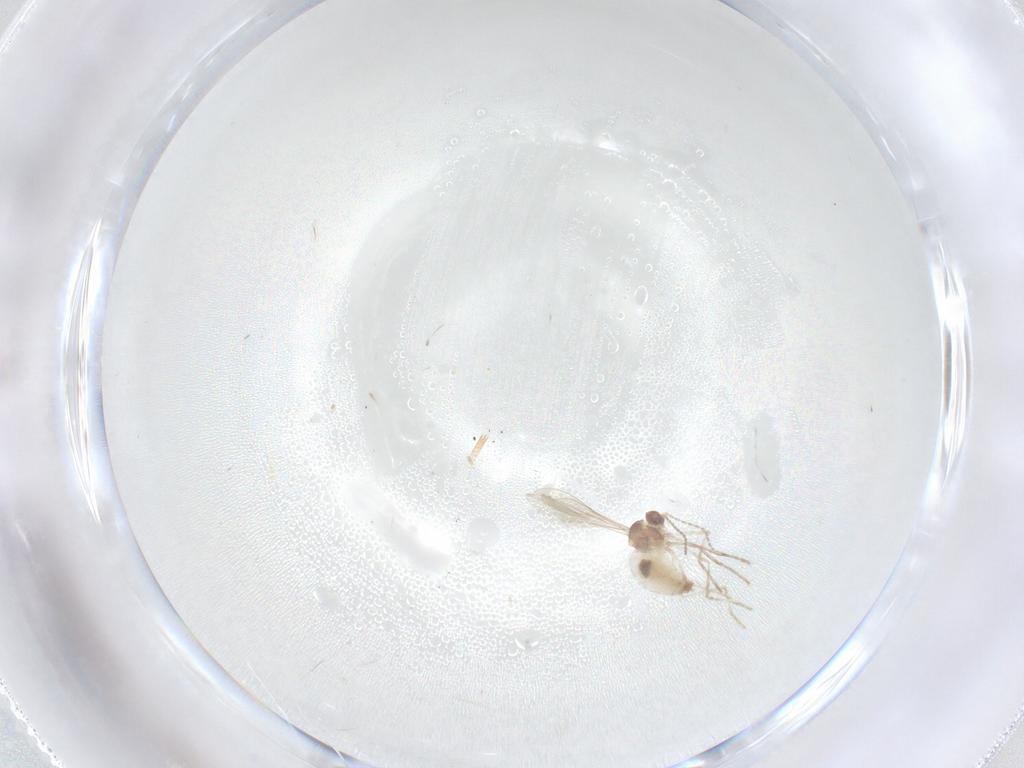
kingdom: Animalia
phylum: Arthropoda
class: Insecta
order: Diptera
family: Cecidomyiidae
